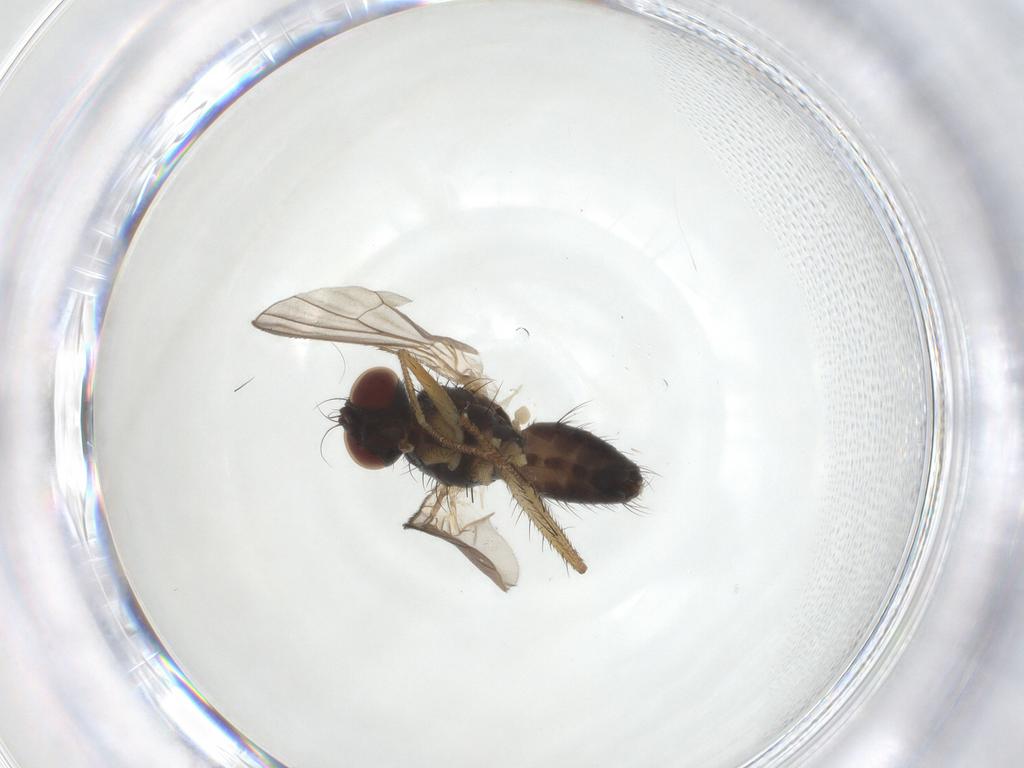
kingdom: Animalia
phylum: Arthropoda
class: Insecta
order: Diptera
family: Muscidae
